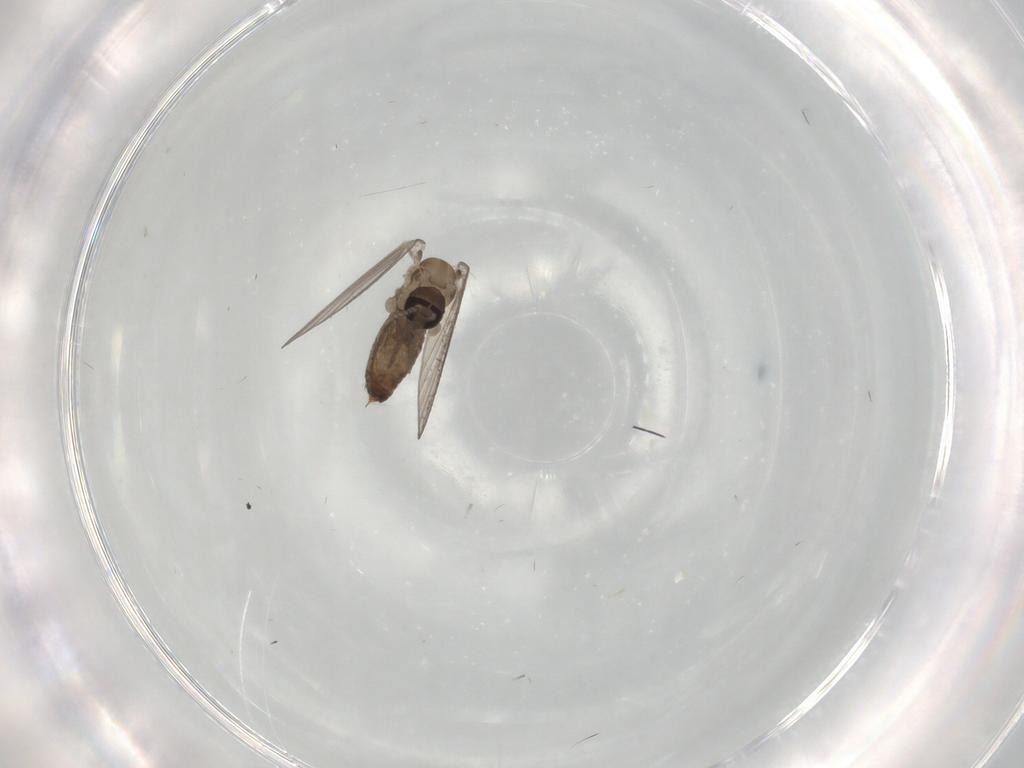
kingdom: Animalia
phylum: Arthropoda
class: Insecta
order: Diptera
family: Psychodidae
